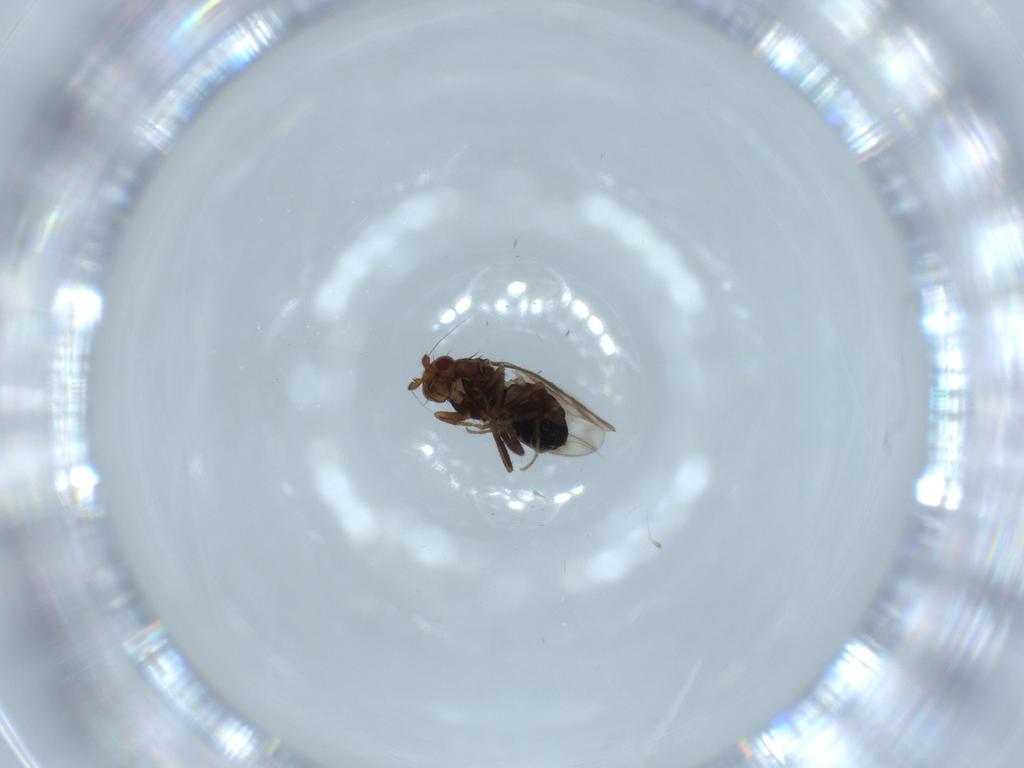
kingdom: Animalia
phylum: Arthropoda
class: Insecta
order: Diptera
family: Sphaeroceridae
